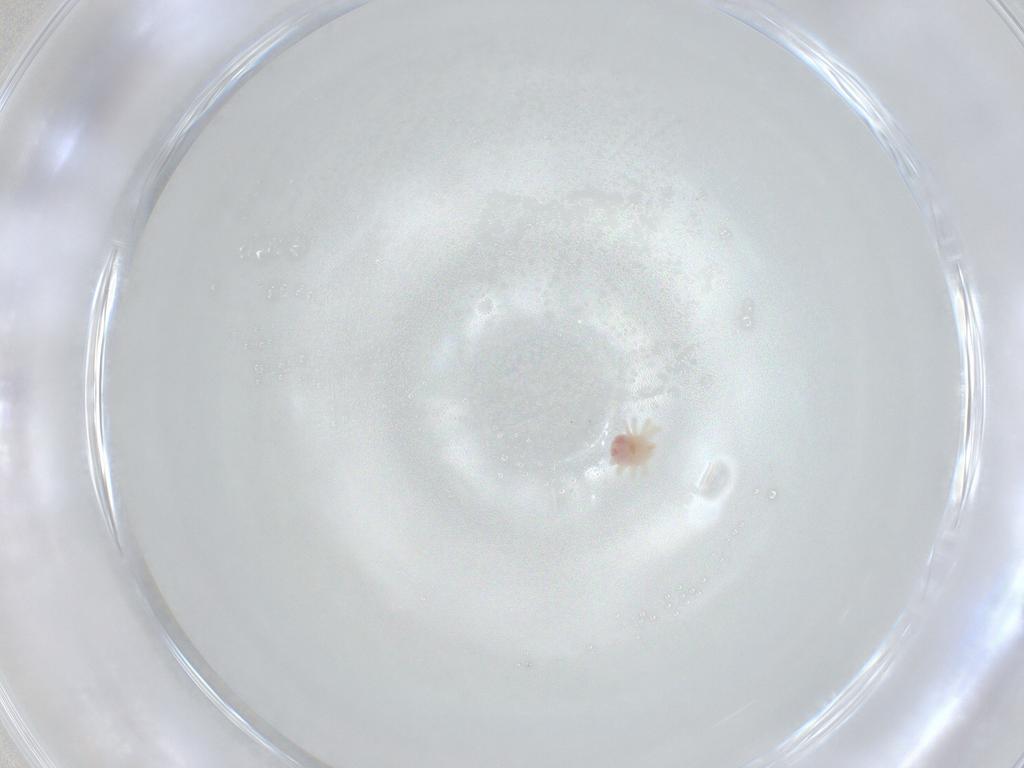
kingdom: Animalia
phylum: Arthropoda
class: Arachnida
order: Trombidiformes
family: Anystidae
